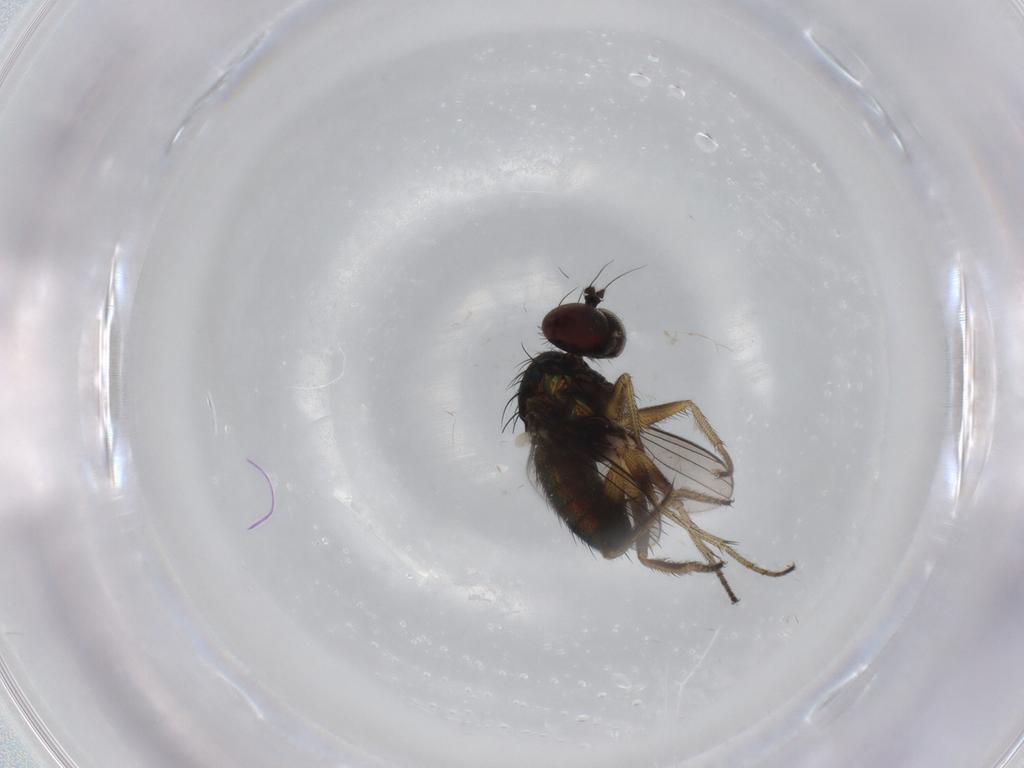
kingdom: Animalia
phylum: Arthropoda
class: Insecta
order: Diptera
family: Dolichopodidae
